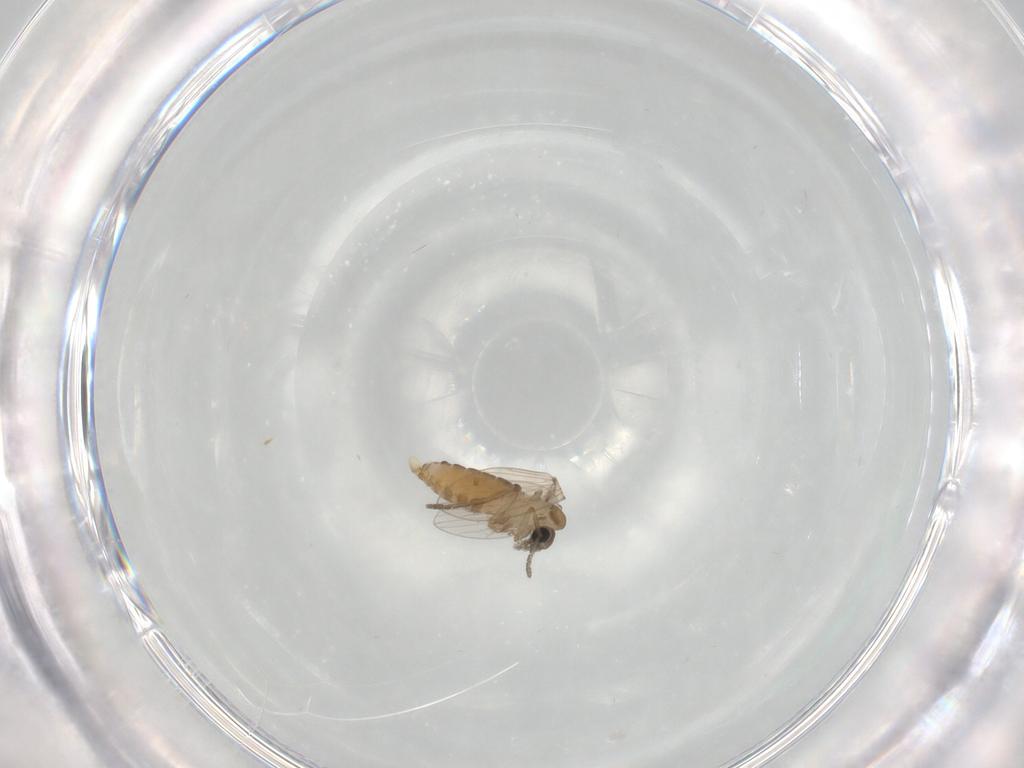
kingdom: Animalia
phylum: Arthropoda
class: Insecta
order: Diptera
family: Psychodidae
